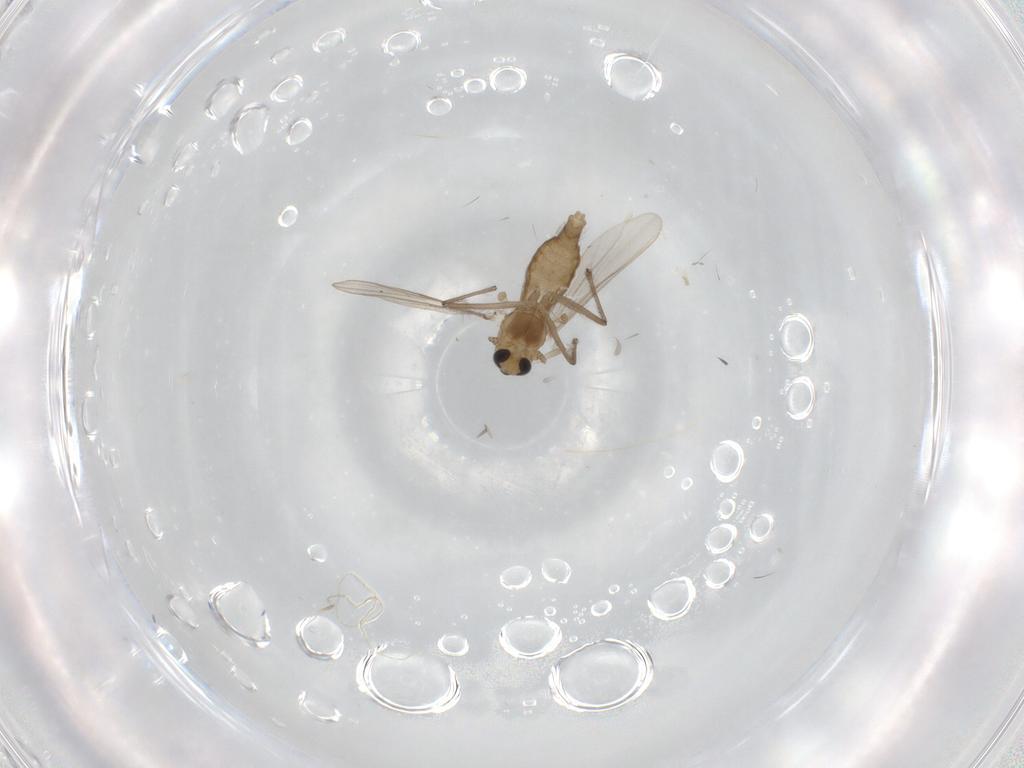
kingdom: Animalia
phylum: Arthropoda
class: Insecta
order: Diptera
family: Chironomidae
